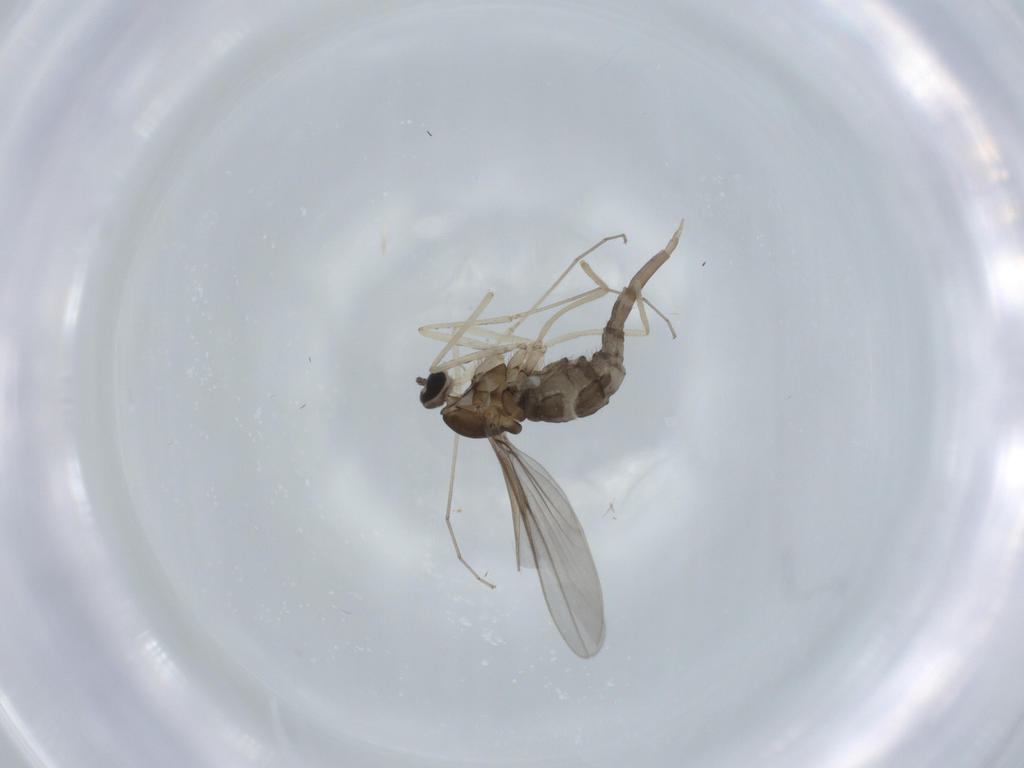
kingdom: Animalia
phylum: Arthropoda
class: Insecta
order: Diptera
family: Cecidomyiidae
